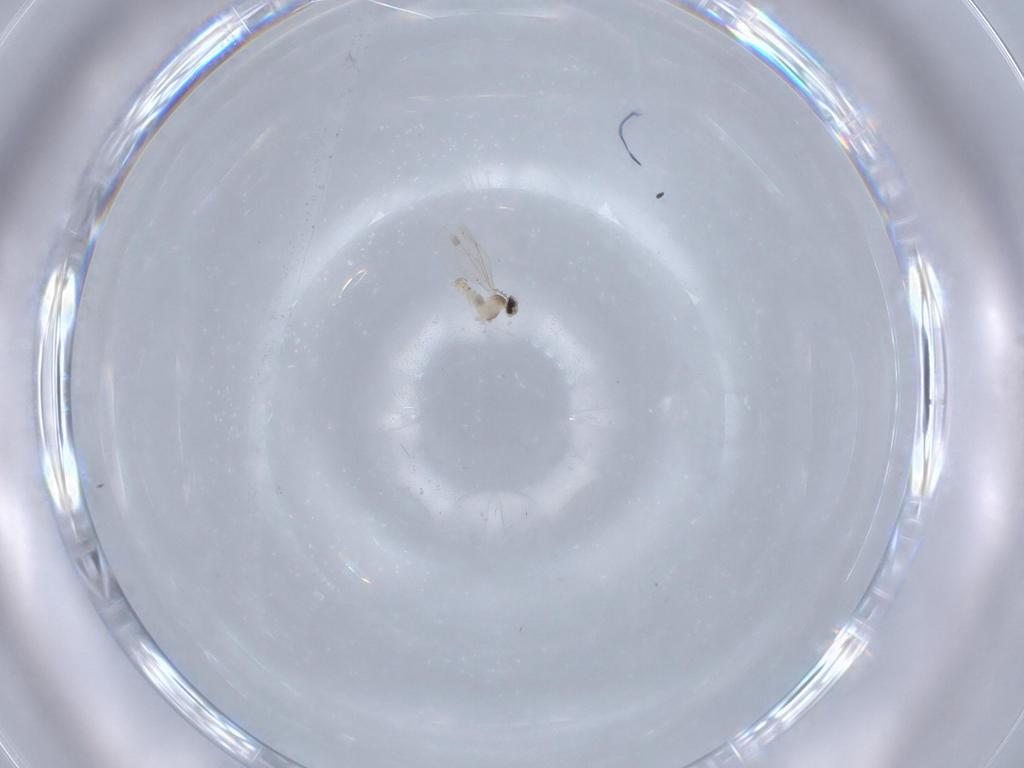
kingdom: Animalia
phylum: Arthropoda
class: Insecta
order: Diptera
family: Cecidomyiidae
